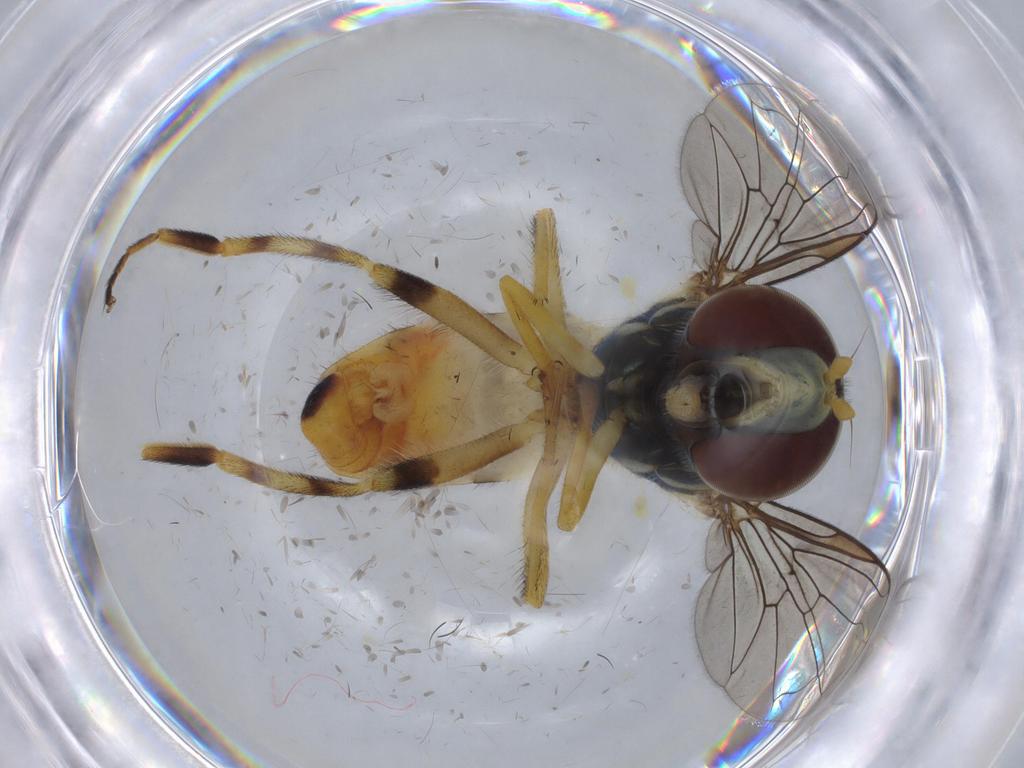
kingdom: Animalia
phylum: Arthropoda
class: Insecta
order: Diptera
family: Syrphidae
